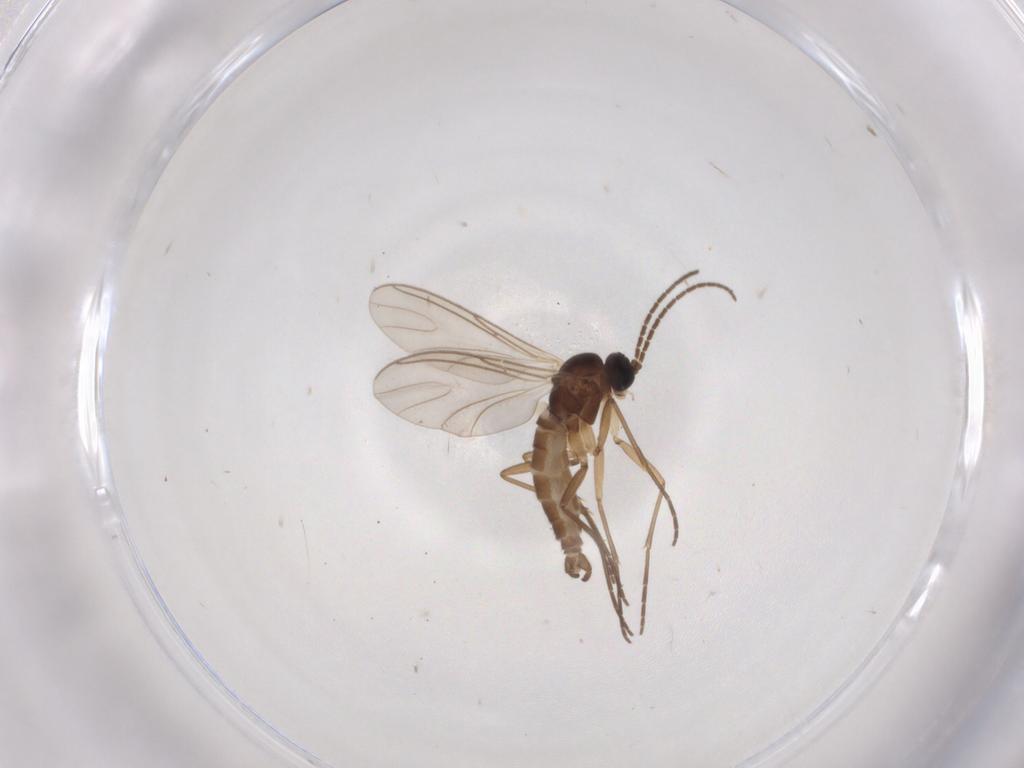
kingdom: Animalia
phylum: Arthropoda
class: Insecta
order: Diptera
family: Sciaridae
